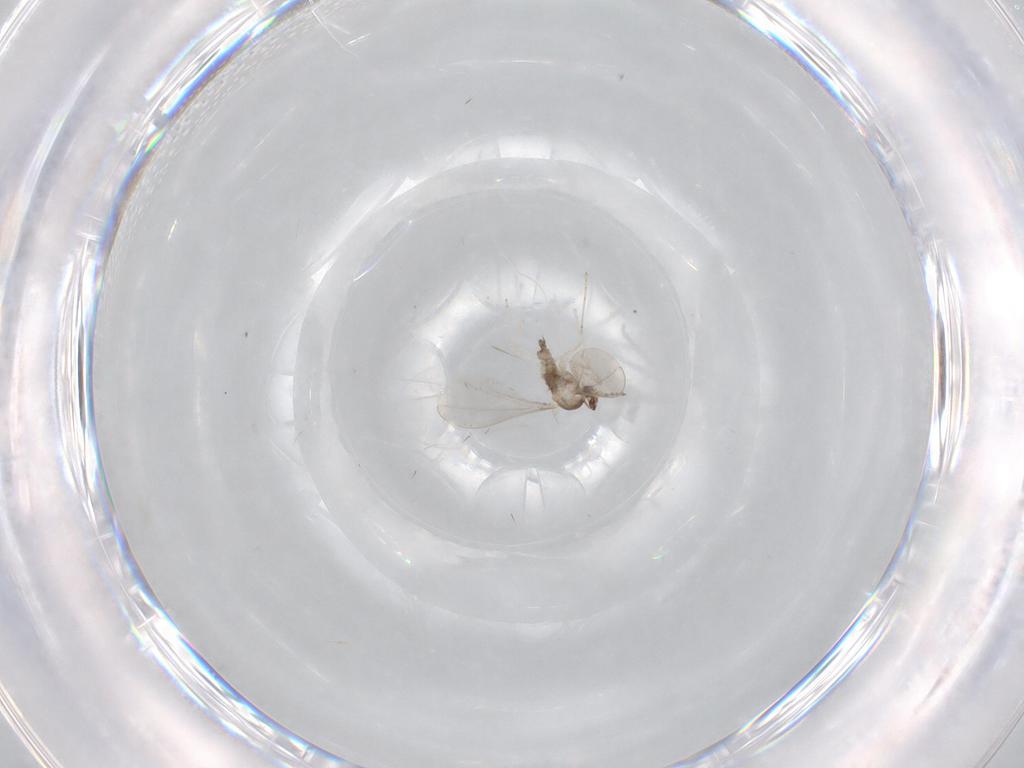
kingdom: Animalia
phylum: Arthropoda
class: Insecta
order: Diptera
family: Cecidomyiidae
